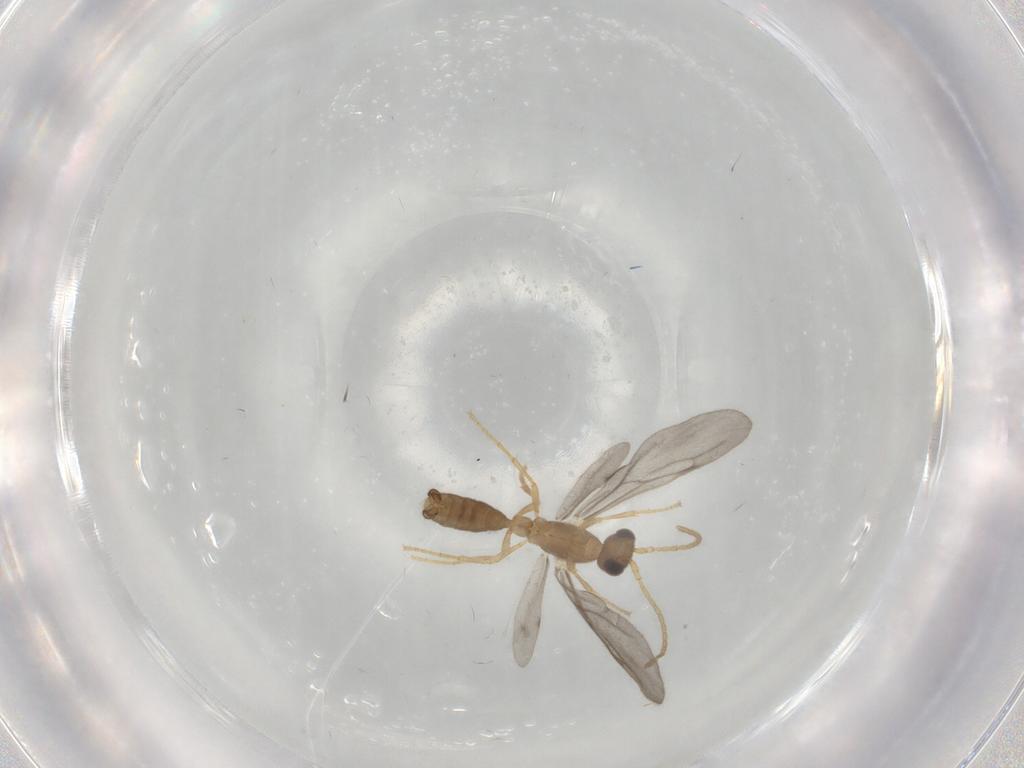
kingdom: Animalia
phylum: Arthropoda
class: Insecta
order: Hymenoptera
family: Formicidae
